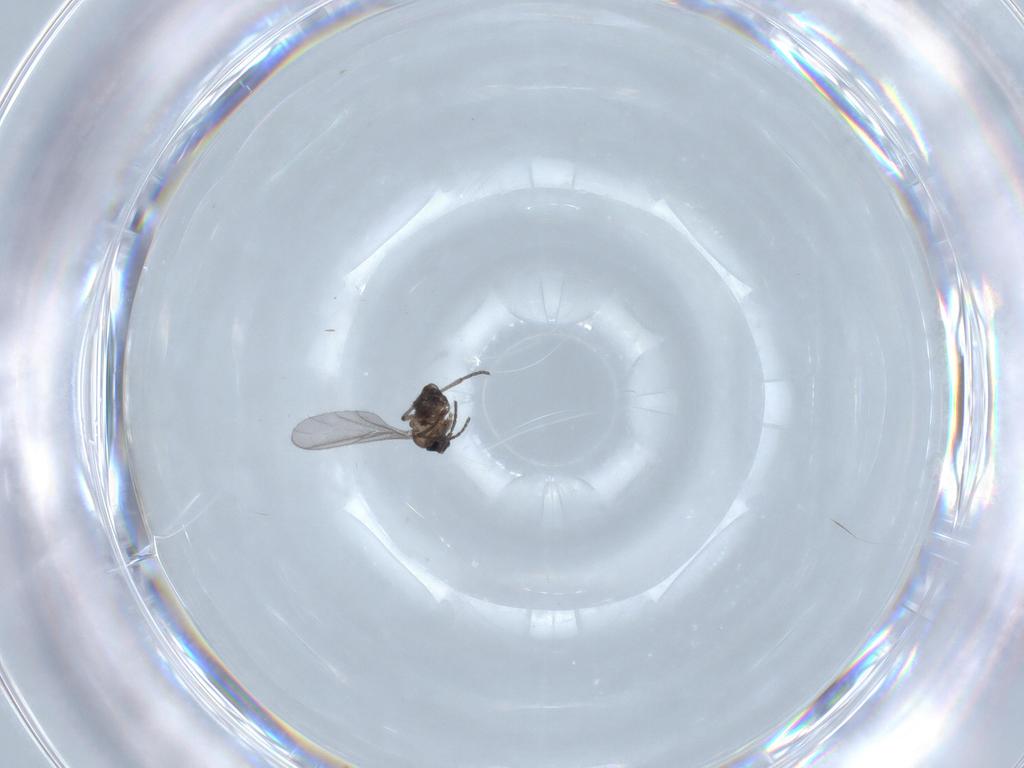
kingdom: Animalia
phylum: Arthropoda
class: Insecta
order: Diptera
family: Sciaridae
